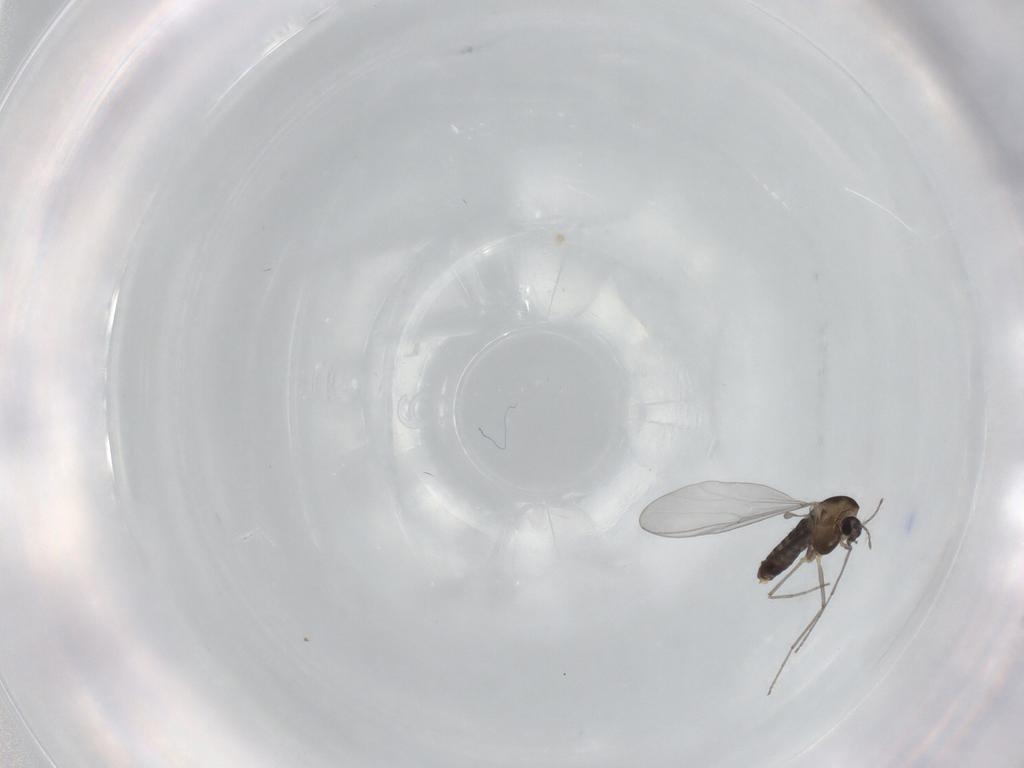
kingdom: Animalia
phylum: Arthropoda
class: Insecta
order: Diptera
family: Chironomidae
